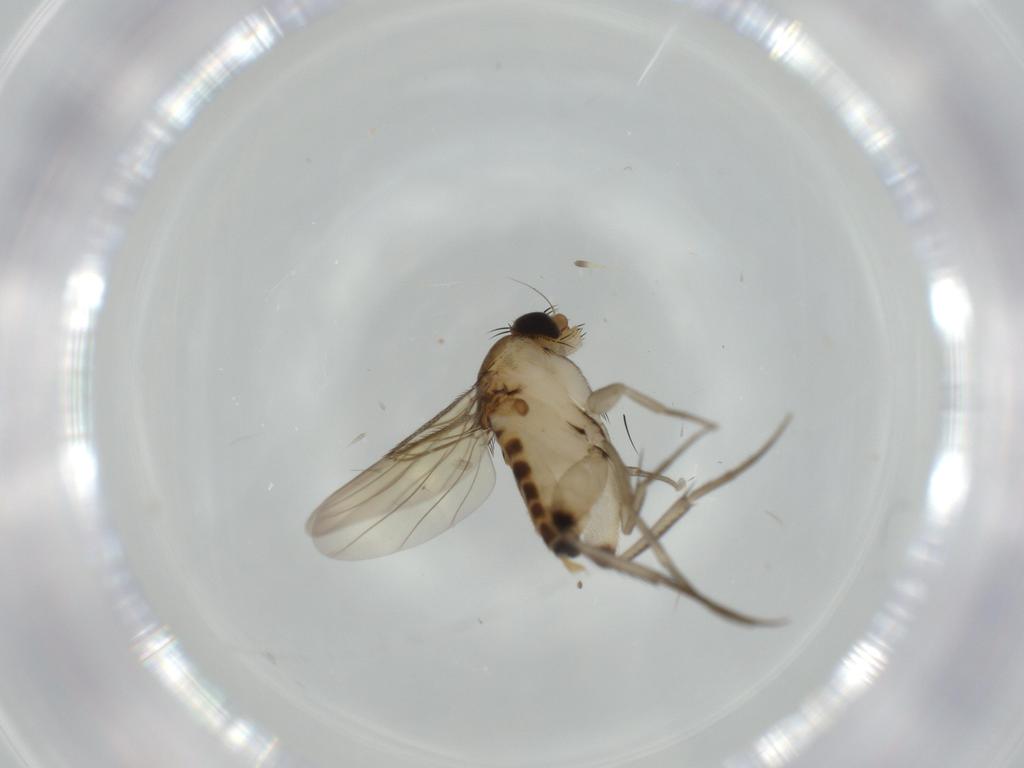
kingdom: Animalia
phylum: Arthropoda
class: Insecta
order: Diptera
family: Phoridae
